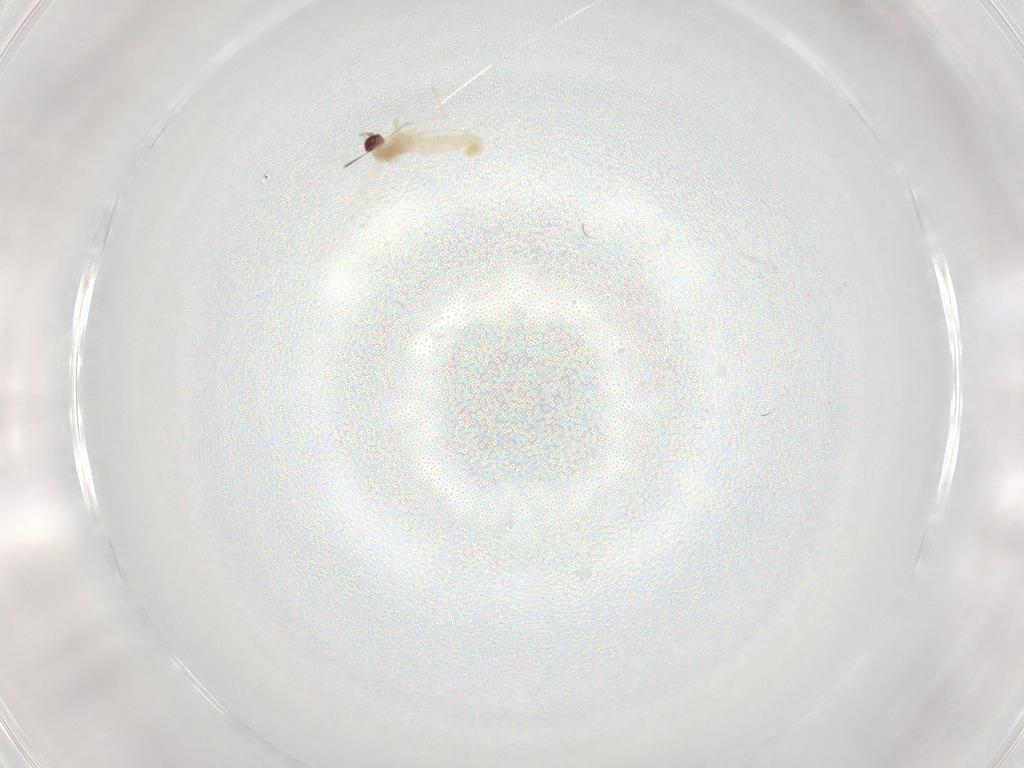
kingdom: Animalia
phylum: Arthropoda
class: Insecta
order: Diptera
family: Cecidomyiidae
